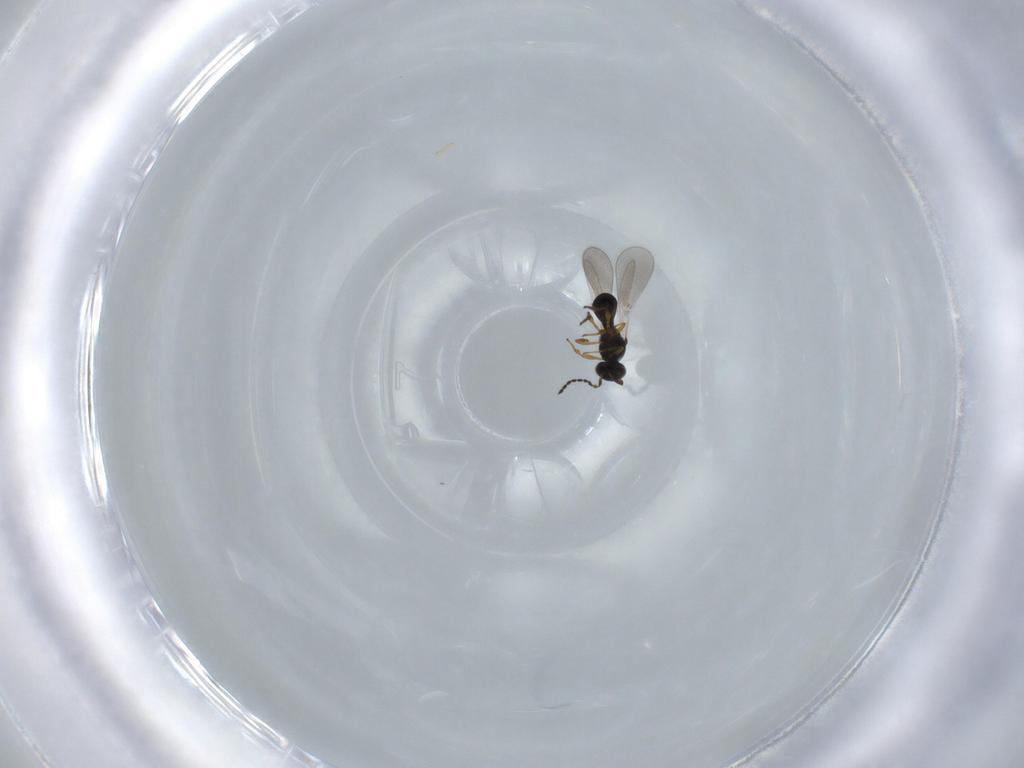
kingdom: Animalia
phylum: Arthropoda
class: Insecta
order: Hymenoptera
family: Platygastridae
